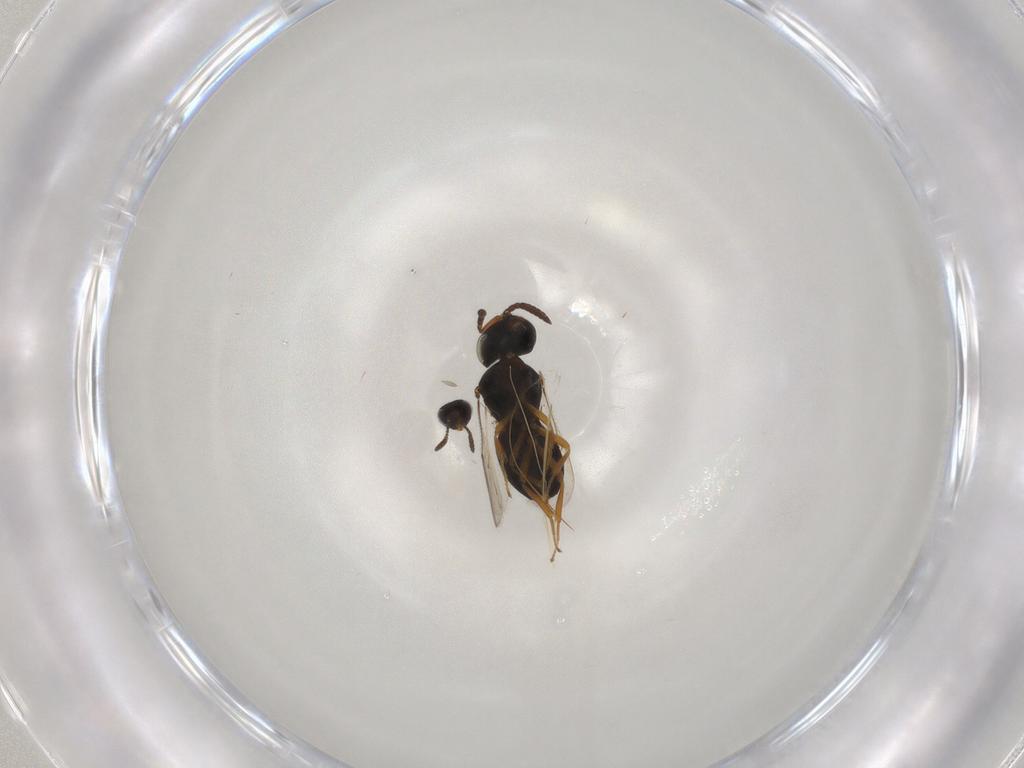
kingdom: Animalia
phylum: Arthropoda
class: Insecta
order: Hymenoptera
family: Scelionidae
